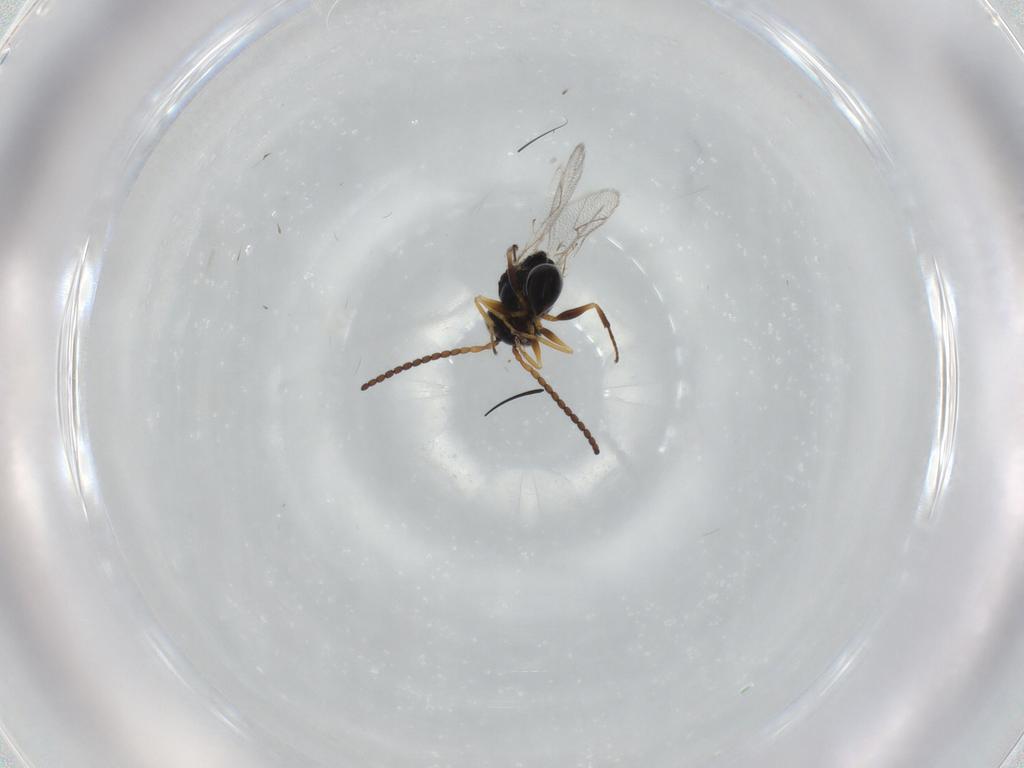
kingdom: Animalia
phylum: Arthropoda
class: Insecta
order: Hymenoptera
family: Figitidae
